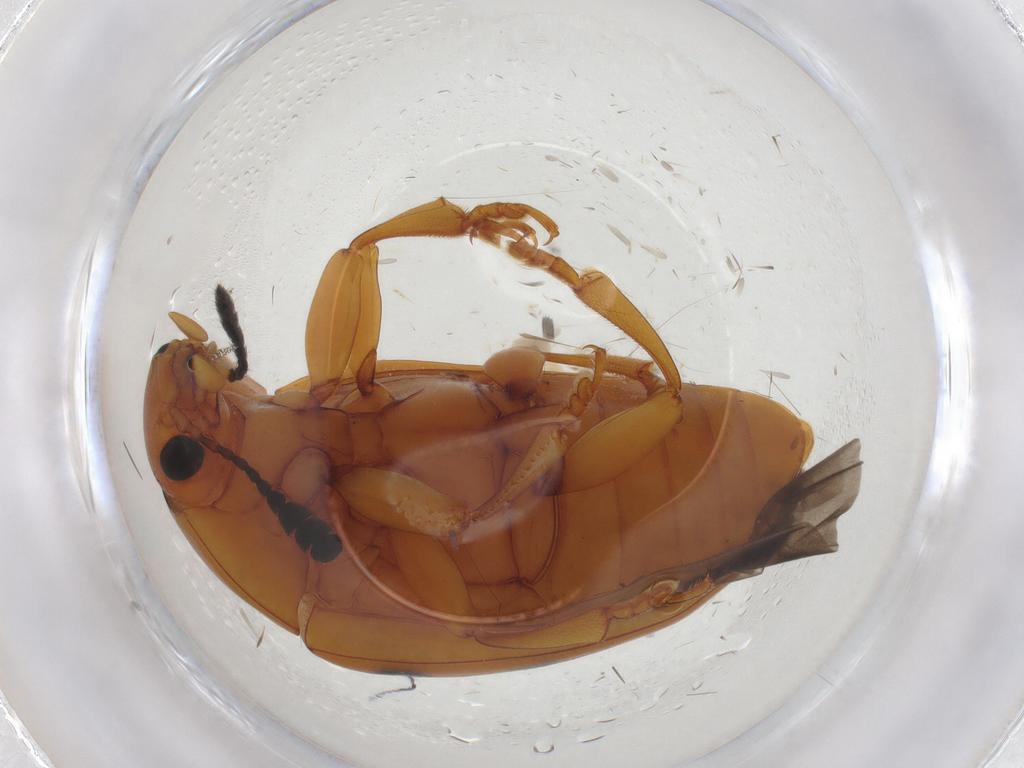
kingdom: Animalia
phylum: Arthropoda
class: Insecta
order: Coleoptera
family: Erotylidae
